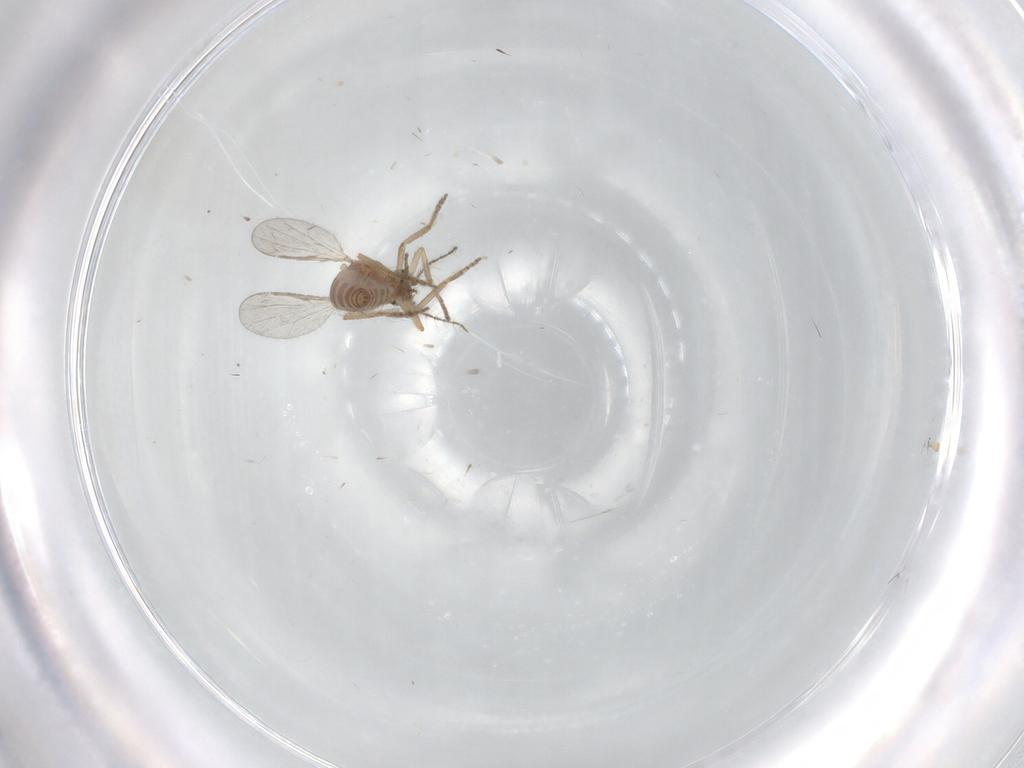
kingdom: Animalia
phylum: Arthropoda
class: Insecta
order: Diptera
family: Ceratopogonidae
